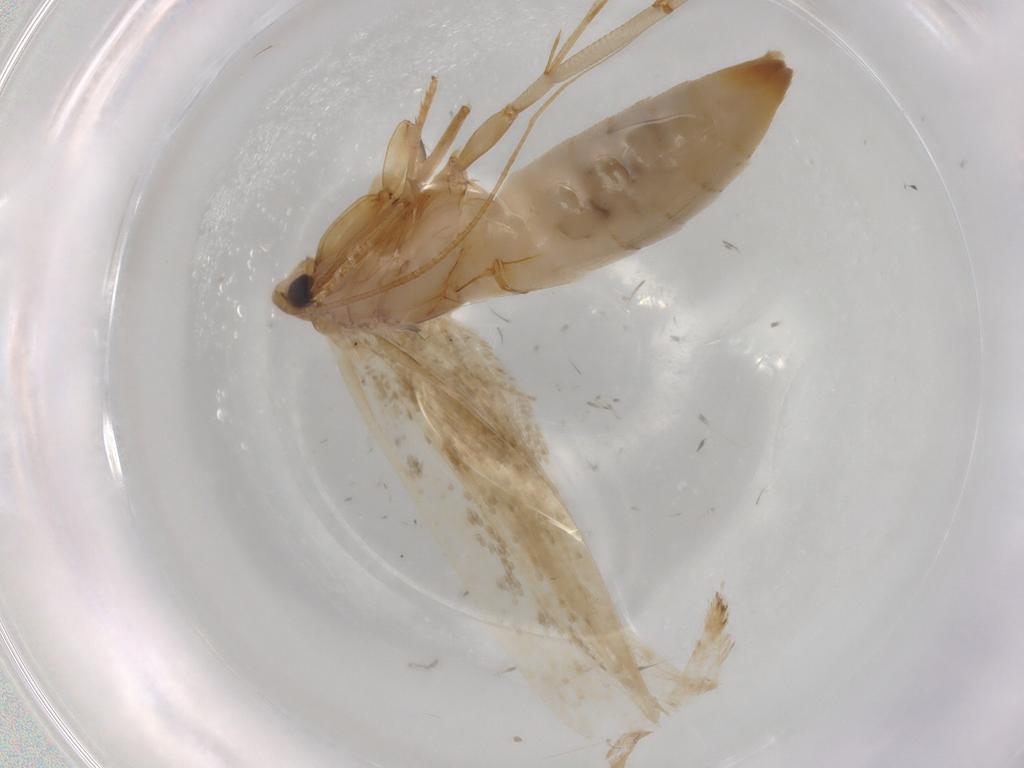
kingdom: Animalia
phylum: Arthropoda
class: Insecta
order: Lepidoptera
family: Tineidae
